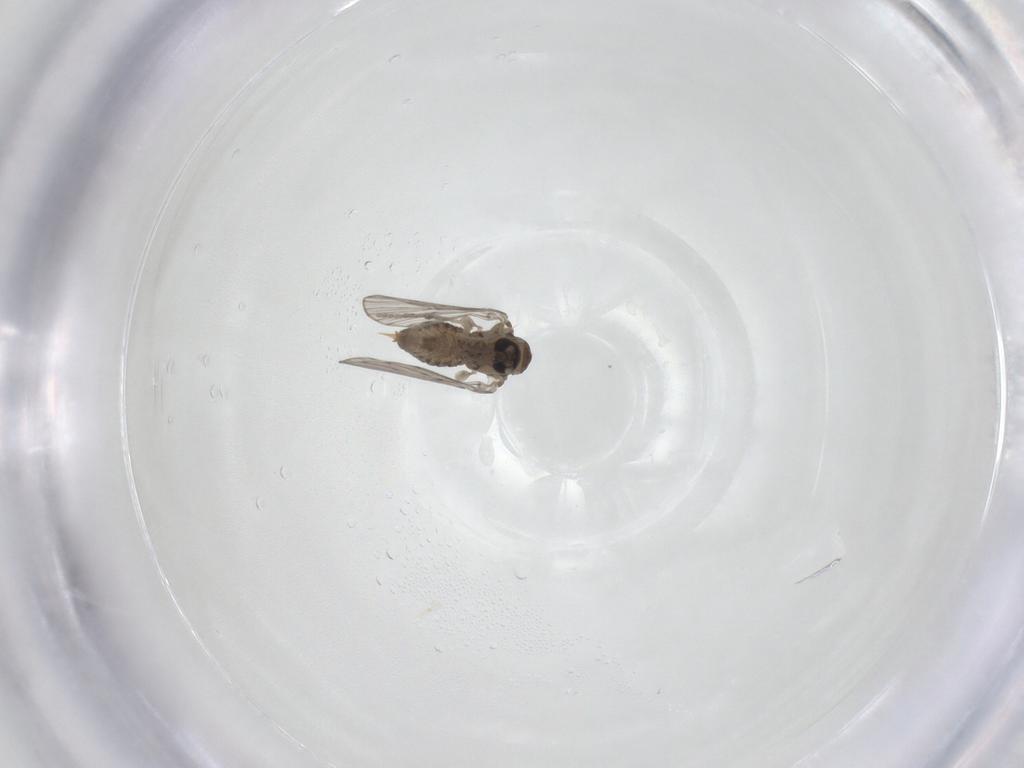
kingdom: Animalia
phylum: Arthropoda
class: Insecta
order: Diptera
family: Psychodidae
